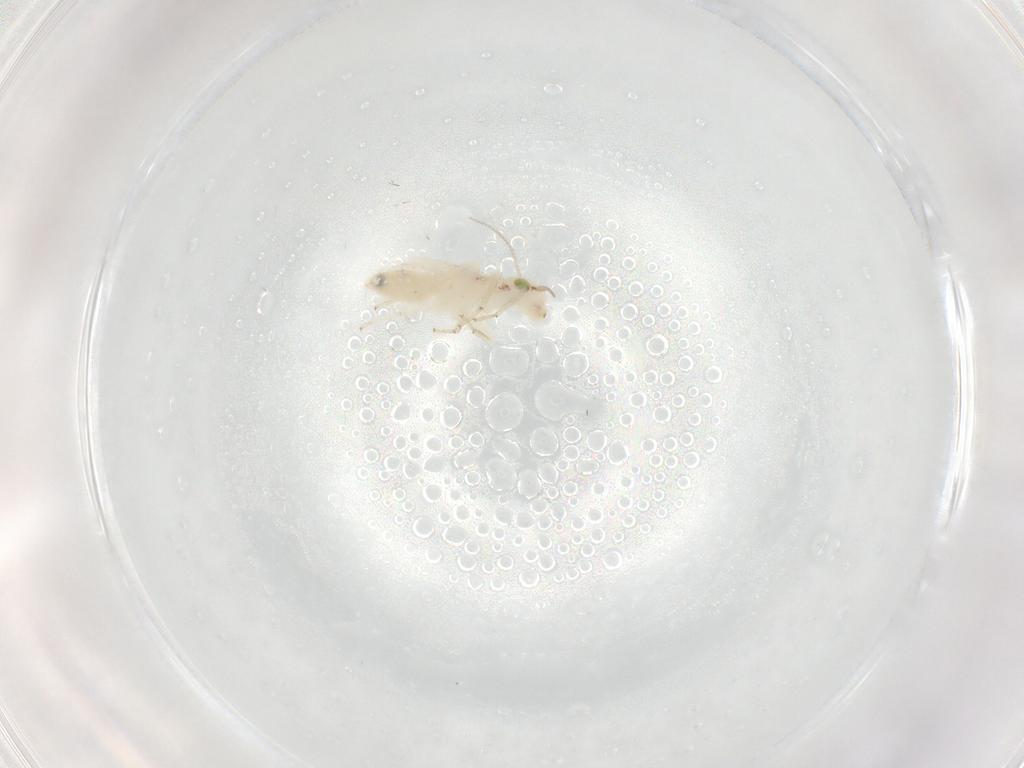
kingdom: Animalia
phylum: Arthropoda
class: Insecta
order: Psocodea
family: Lepidopsocidae
